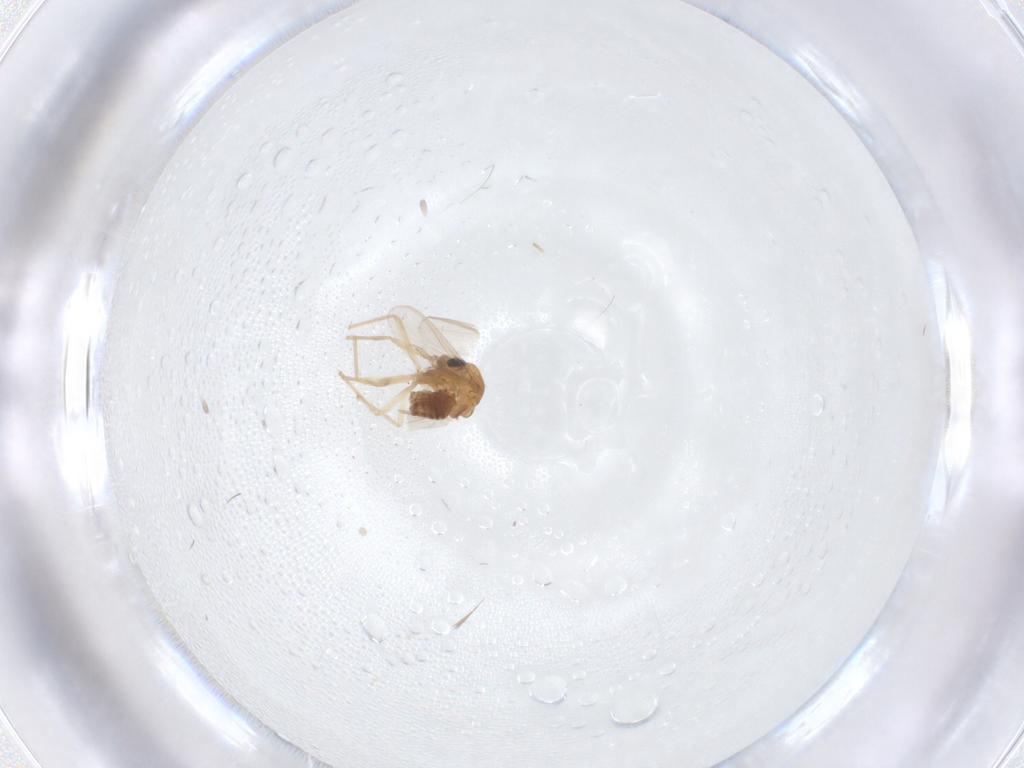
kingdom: Animalia
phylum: Arthropoda
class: Insecta
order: Diptera
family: Chironomidae
